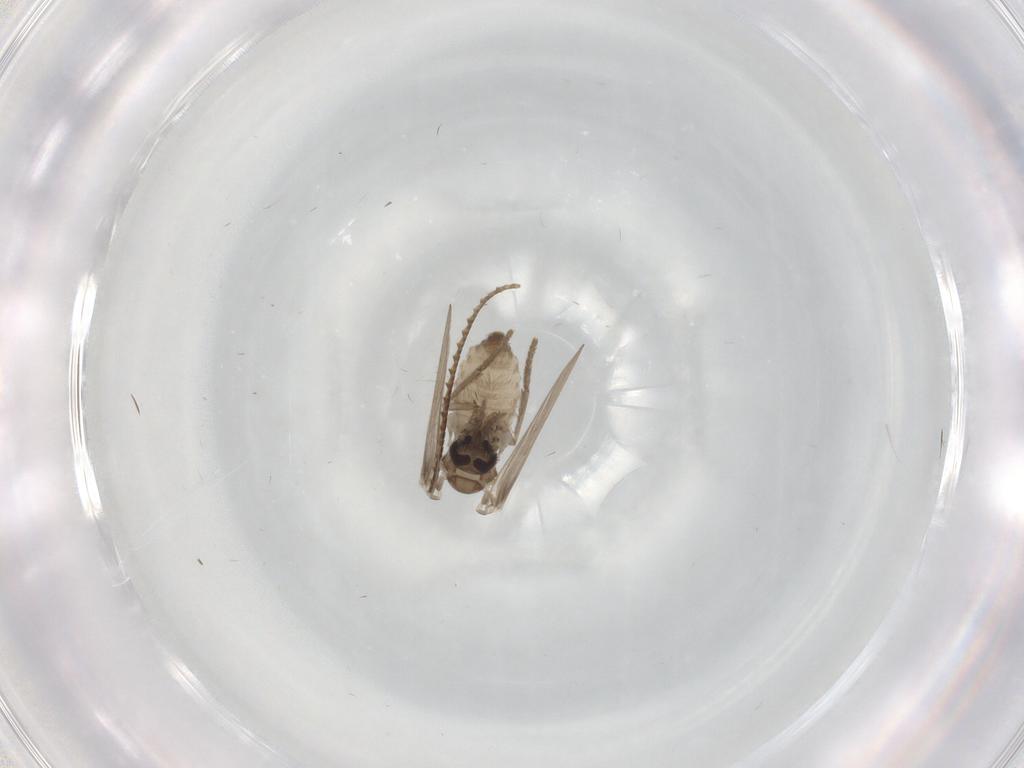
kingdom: Animalia
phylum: Arthropoda
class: Insecta
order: Diptera
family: Psychodidae
